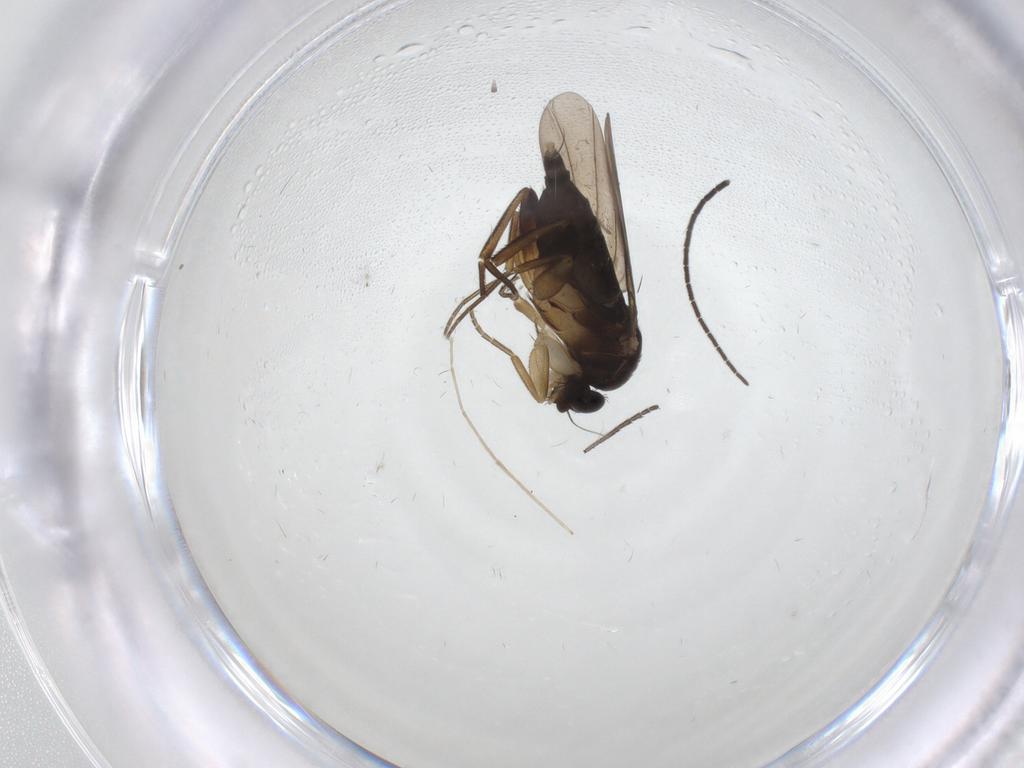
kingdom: Animalia
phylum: Arthropoda
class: Insecta
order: Diptera
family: Phoridae
